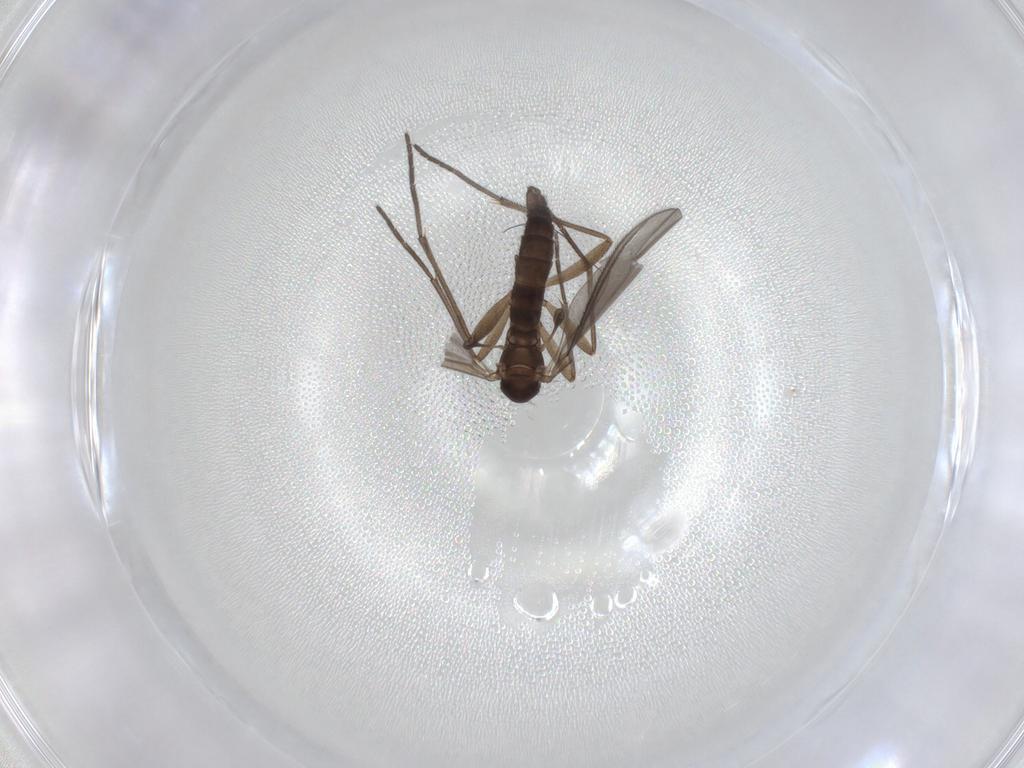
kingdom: Animalia
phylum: Arthropoda
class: Insecta
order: Diptera
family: Sciaridae
